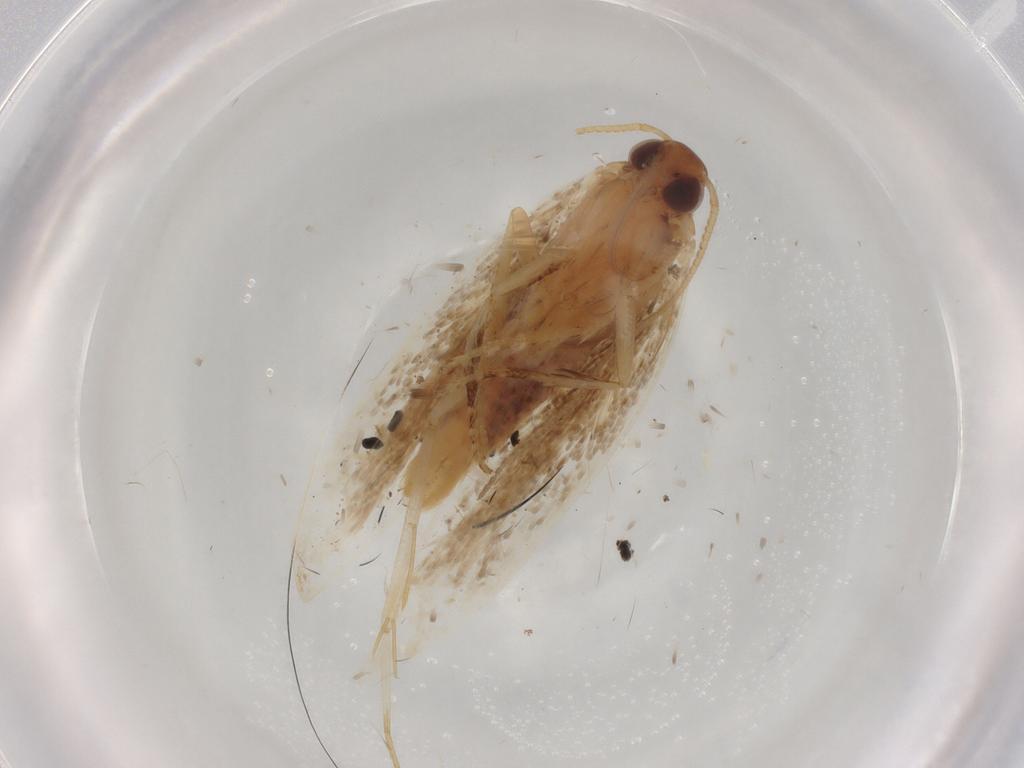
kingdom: Animalia
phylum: Arthropoda
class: Insecta
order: Lepidoptera
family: Gelechiidae
